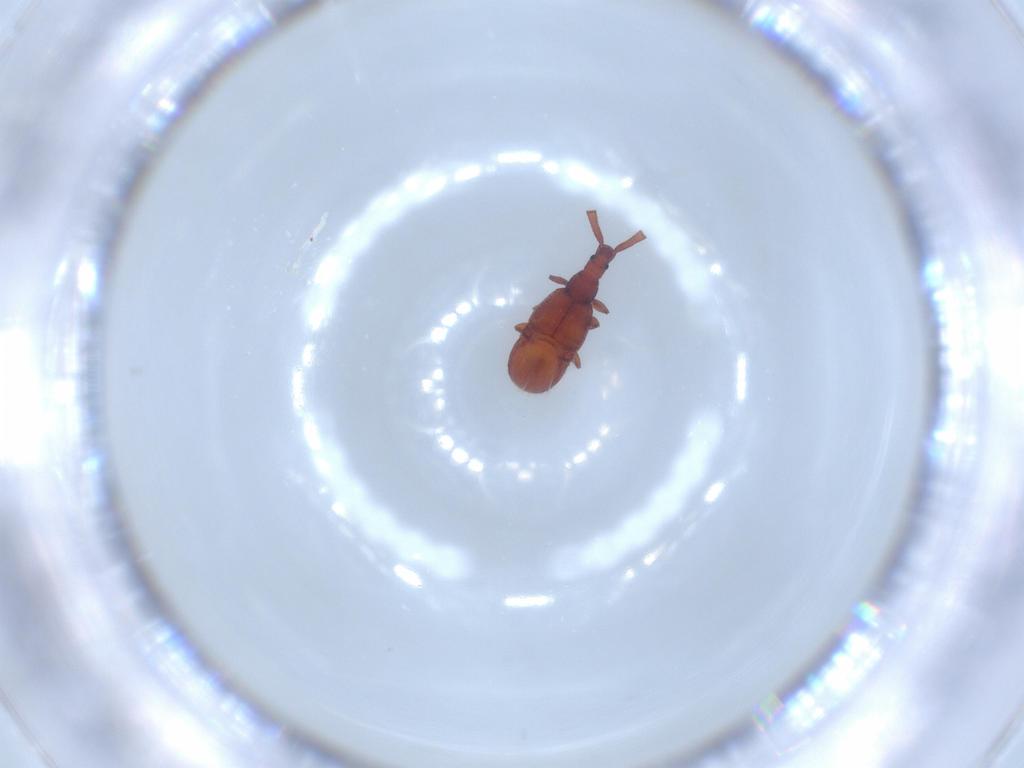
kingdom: Animalia
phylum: Arthropoda
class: Insecta
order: Coleoptera
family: Staphylinidae
